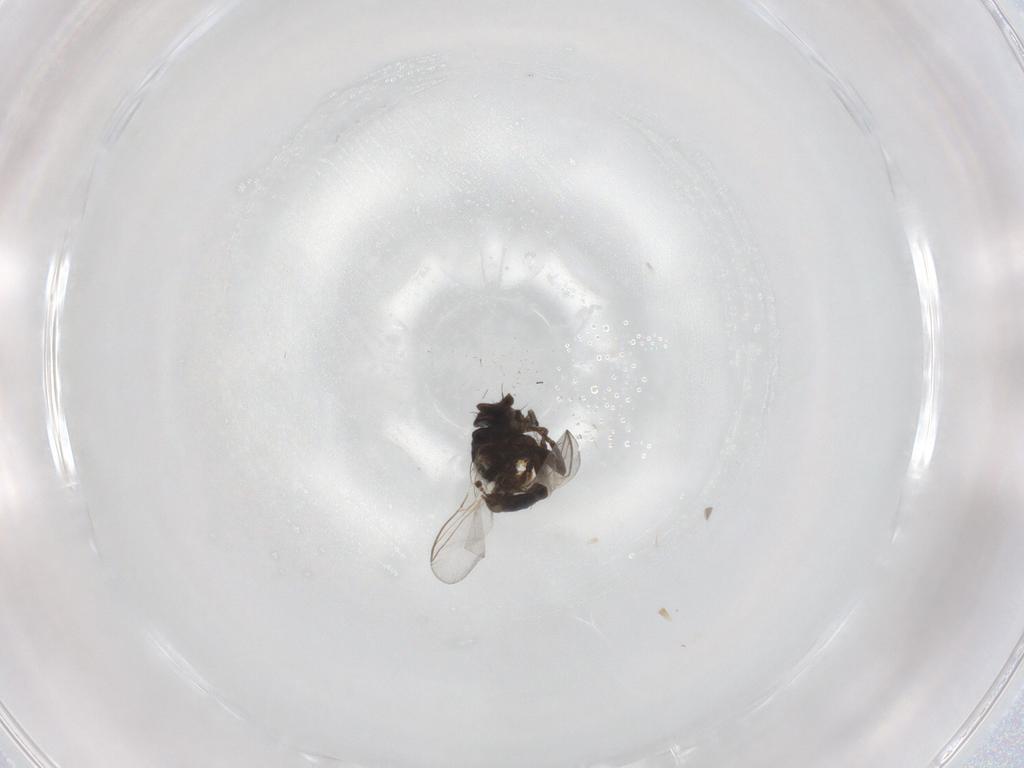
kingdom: Animalia
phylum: Arthropoda
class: Insecta
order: Diptera
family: Agromyzidae
